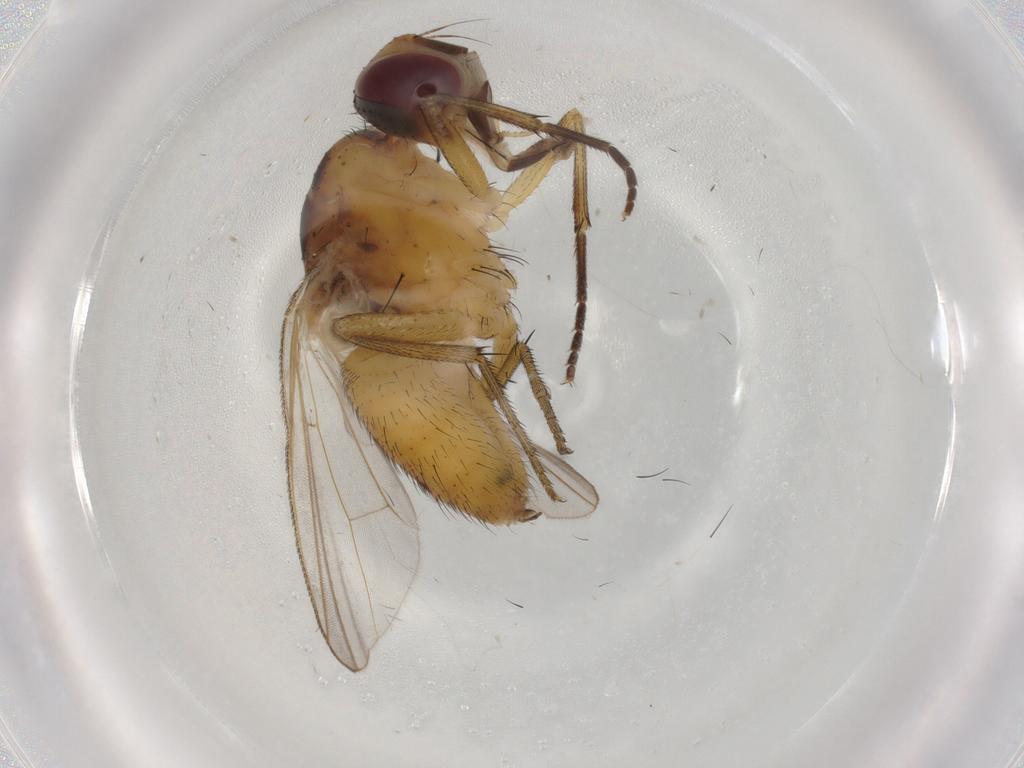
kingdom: Animalia
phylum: Arthropoda
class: Insecta
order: Diptera
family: Muscidae
